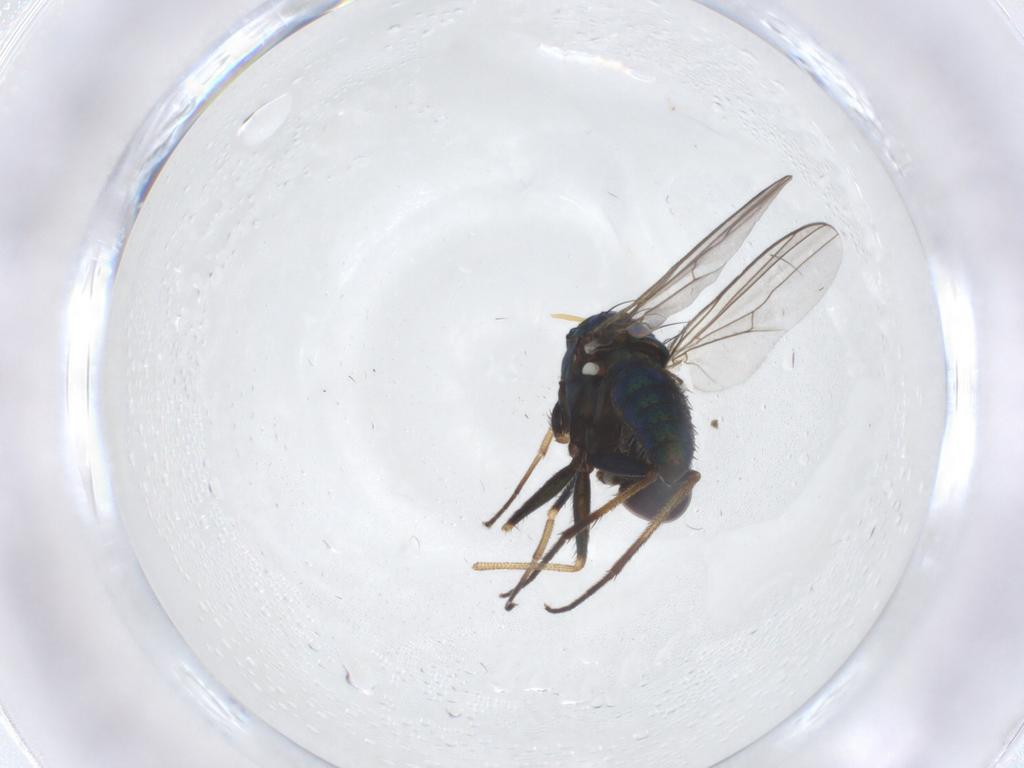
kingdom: Animalia
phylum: Arthropoda
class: Insecta
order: Diptera
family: Dolichopodidae
